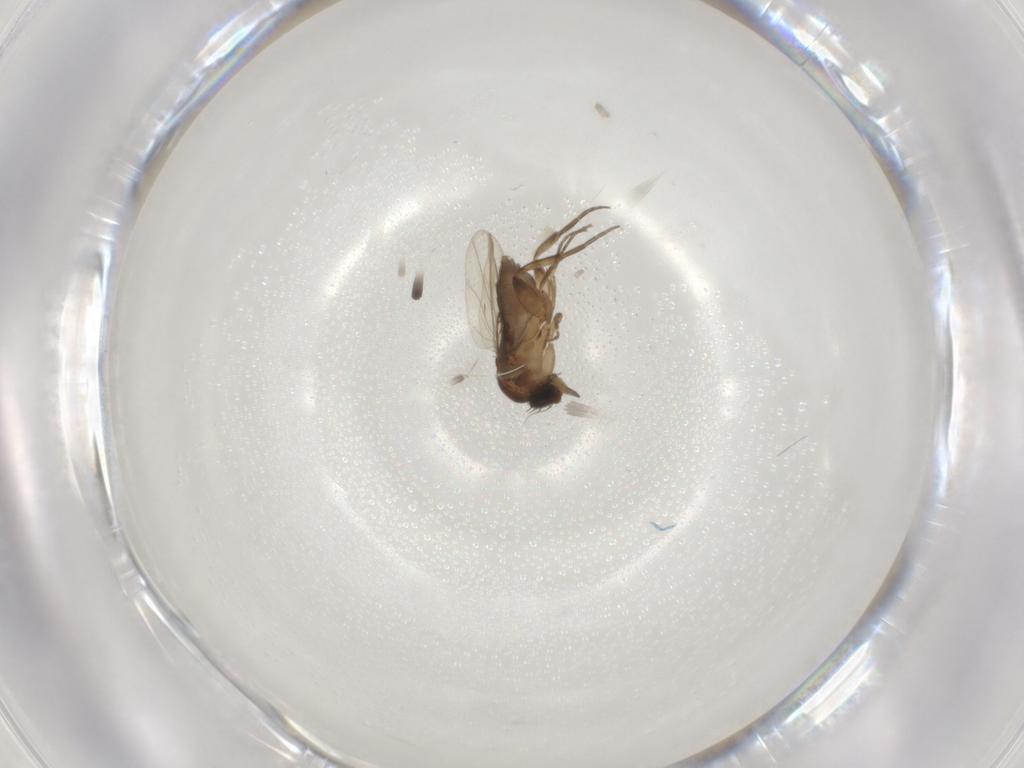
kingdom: Animalia
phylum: Arthropoda
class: Insecta
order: Diptera
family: Phoridae
